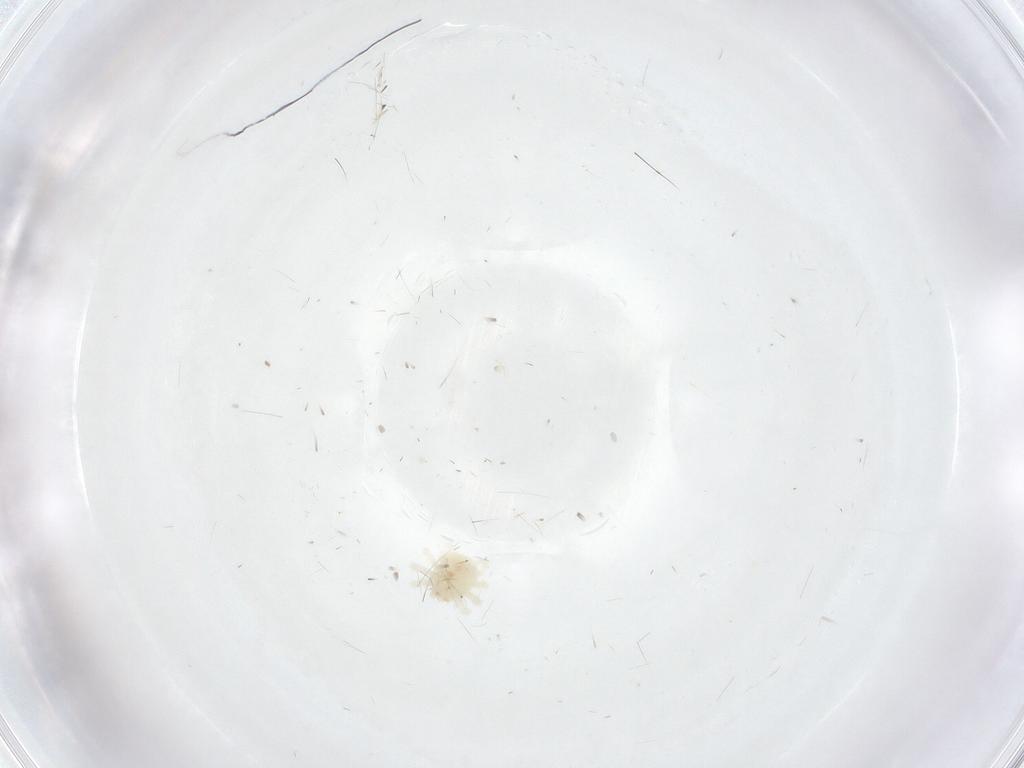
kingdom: Animalia
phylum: Arthropoda
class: Arachnida
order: Trombidiformes
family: Anystidae
